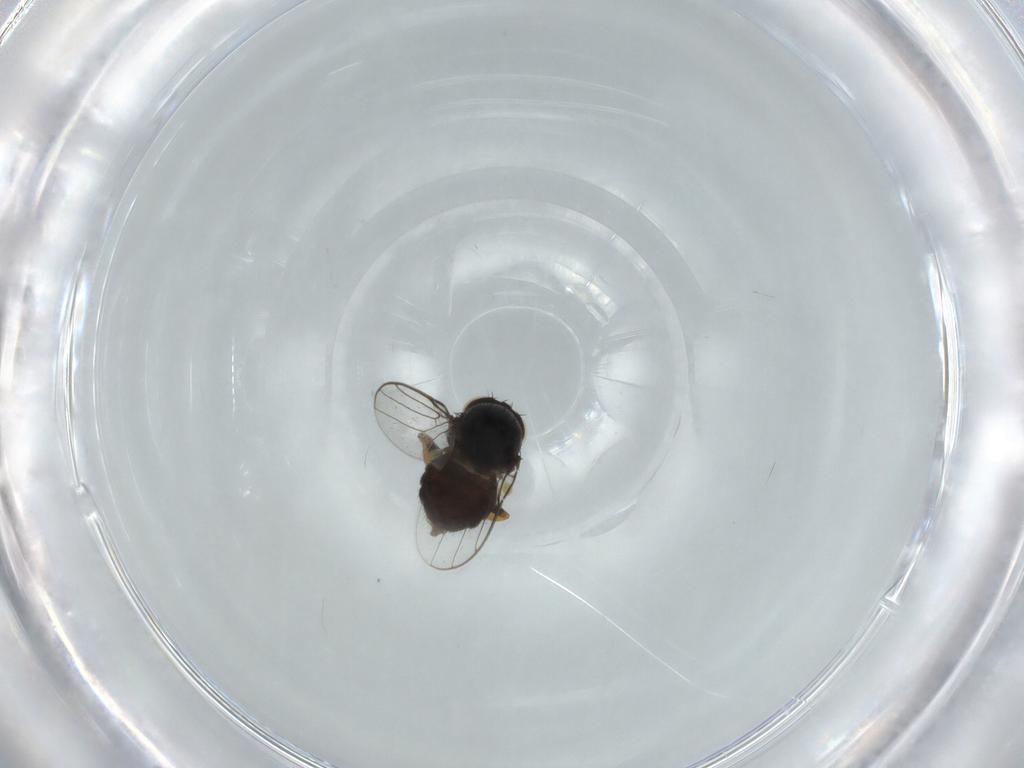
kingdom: Animalia
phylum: Arthropoda
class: Insecta
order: Diptera
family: Chloropidae
